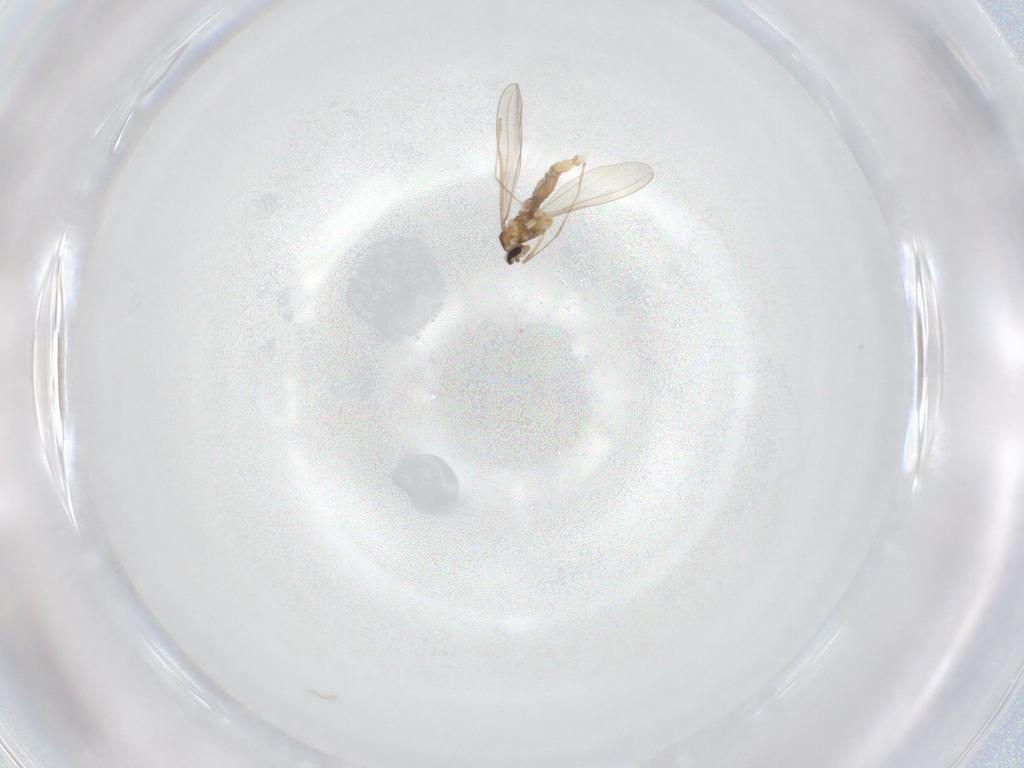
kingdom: Animalia
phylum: Arthropoda
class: Insecta
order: Diptera
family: Cecidomyiidae
